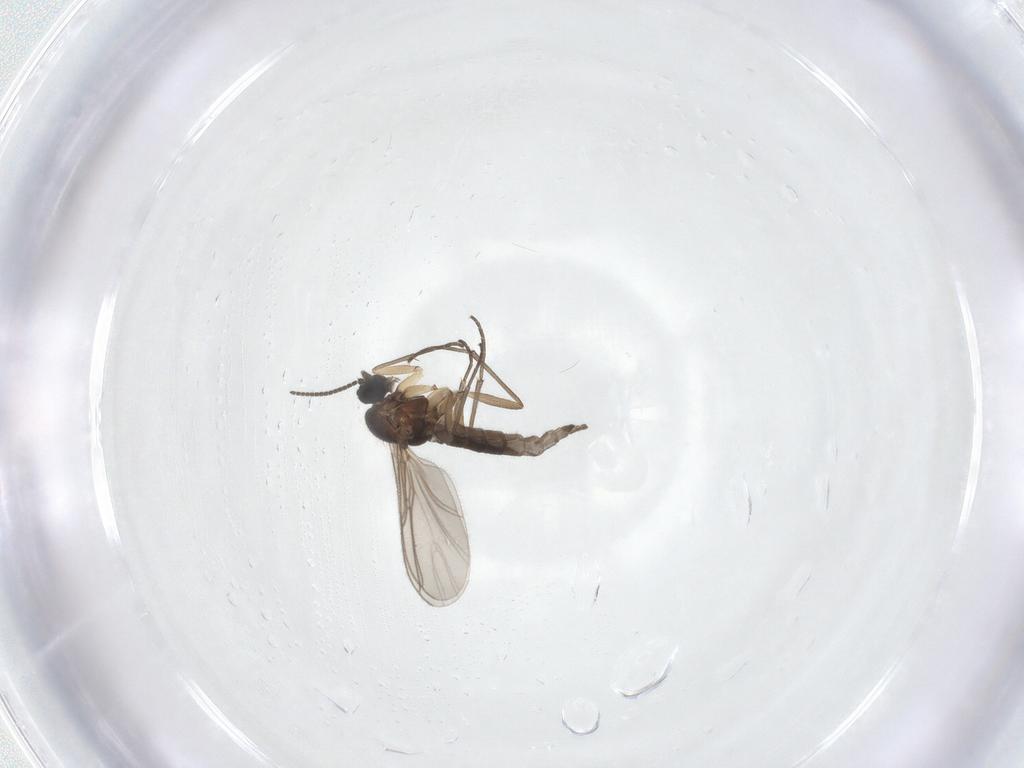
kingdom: Animalia
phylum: Arthropoda
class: Insecta
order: Diptera
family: Sciaridae
